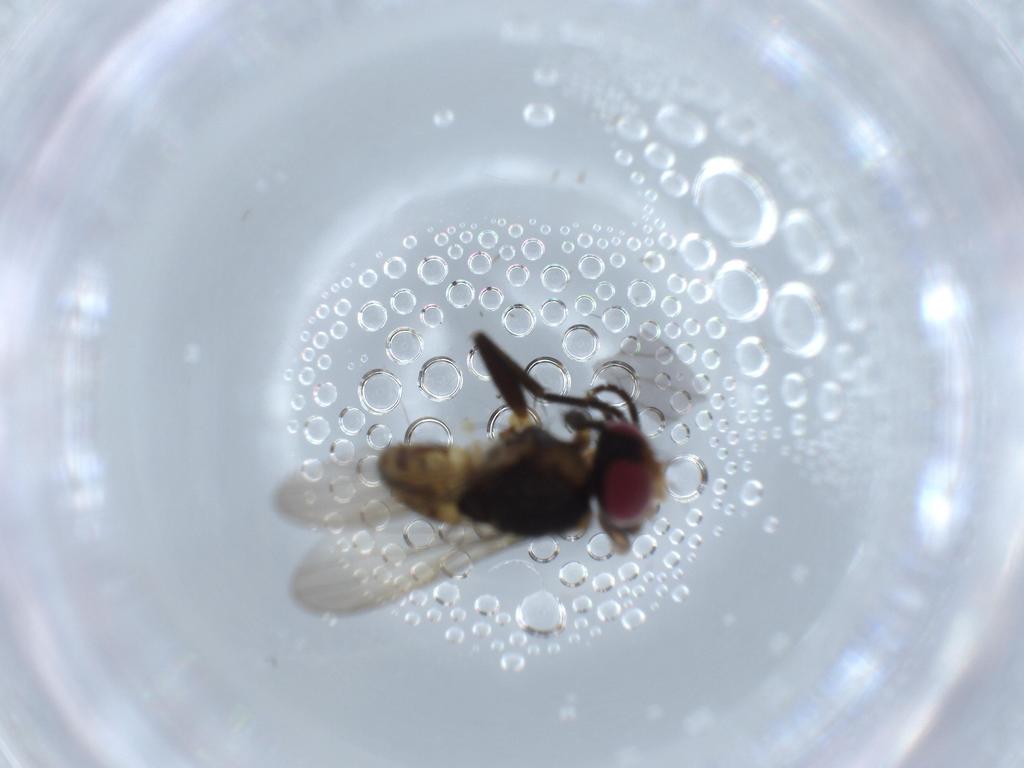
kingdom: Animalia
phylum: Arthropoda
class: Insecta
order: Diptera
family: Anthomyiidae
